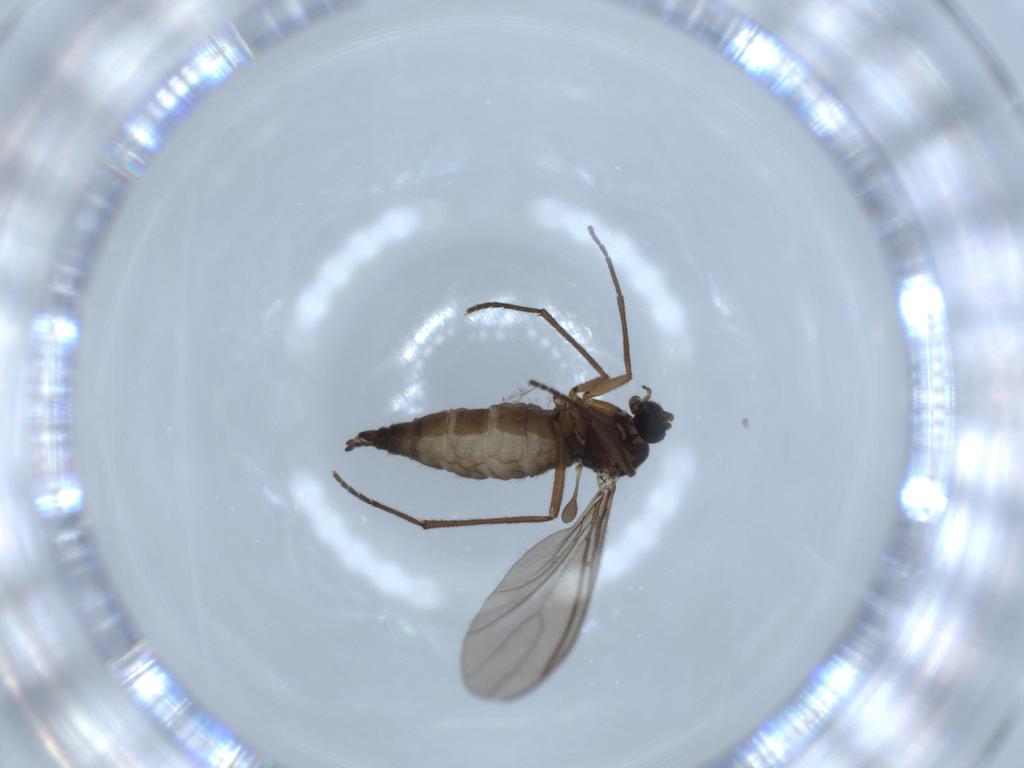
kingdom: Animalia
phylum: Arthropoda
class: Insecta
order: Diptera
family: Sciaridae
